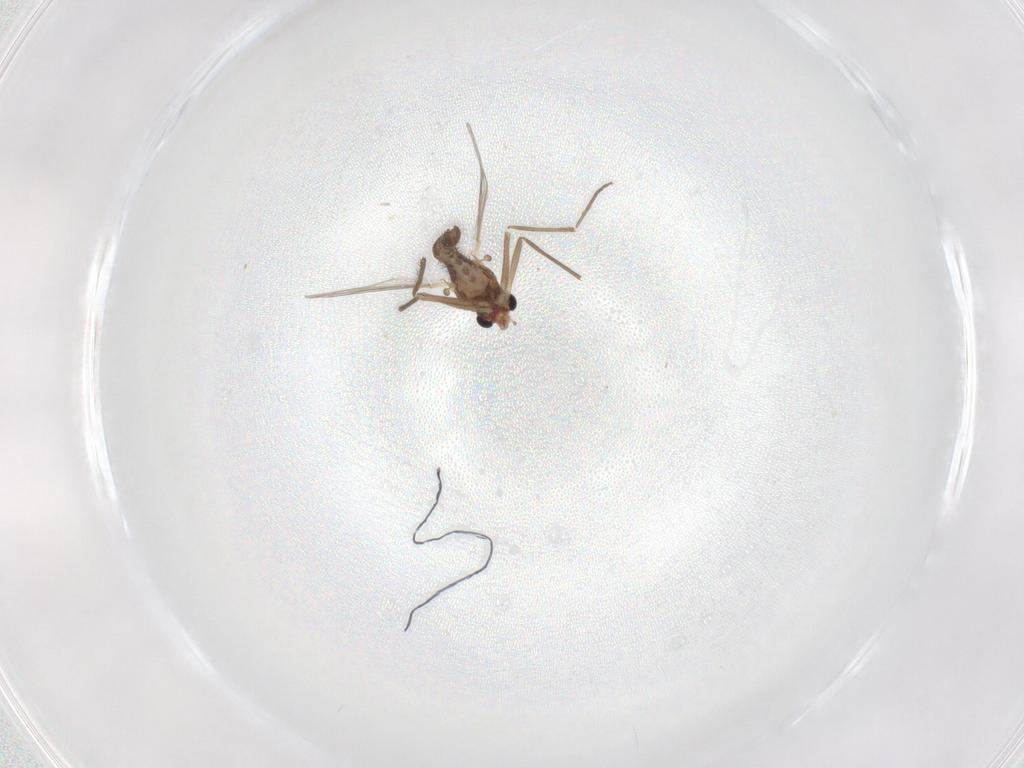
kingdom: Animalia
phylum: Arthropoda
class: Insecta
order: Diptera
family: Chironomidae
